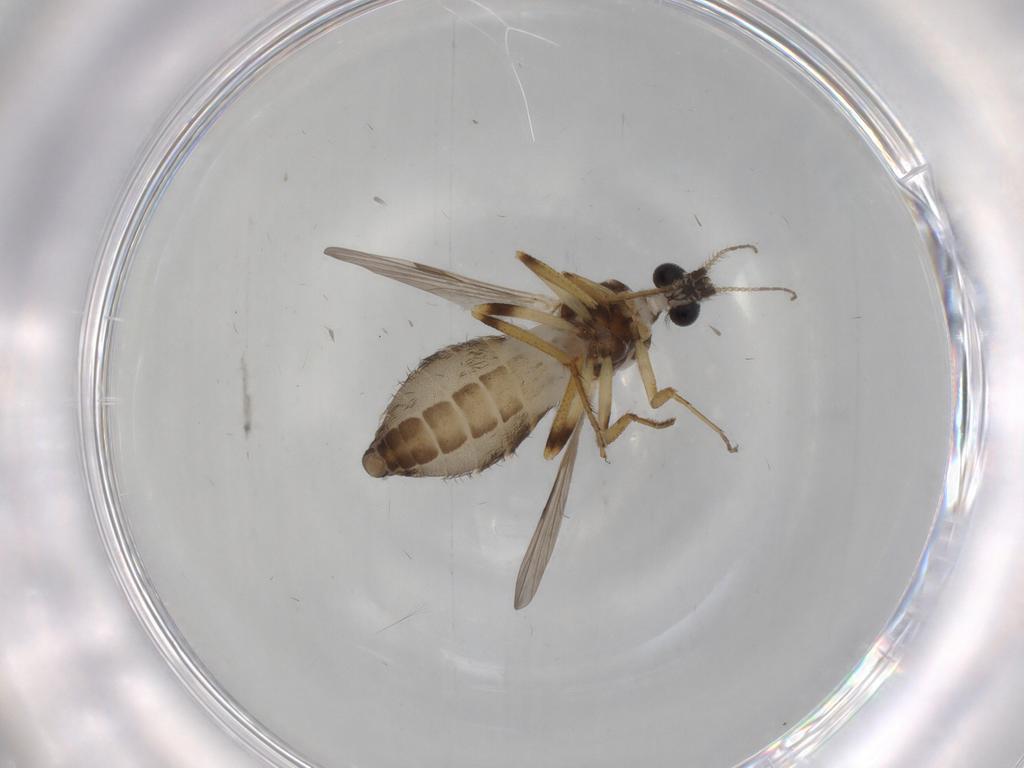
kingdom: Animalia
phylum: Arthropoda
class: Insecta
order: Diptera
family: Ceratopogonidae
